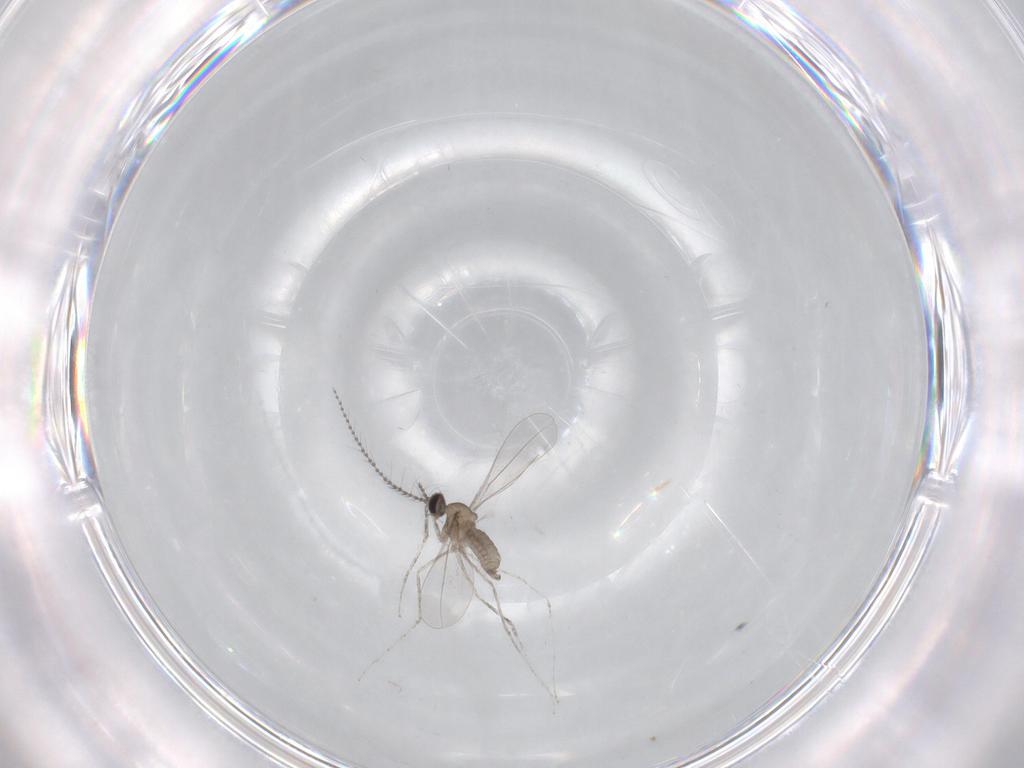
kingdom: Animalia
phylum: Arthropoda
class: Insecta
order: Diptera
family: Cecidomyiidae
